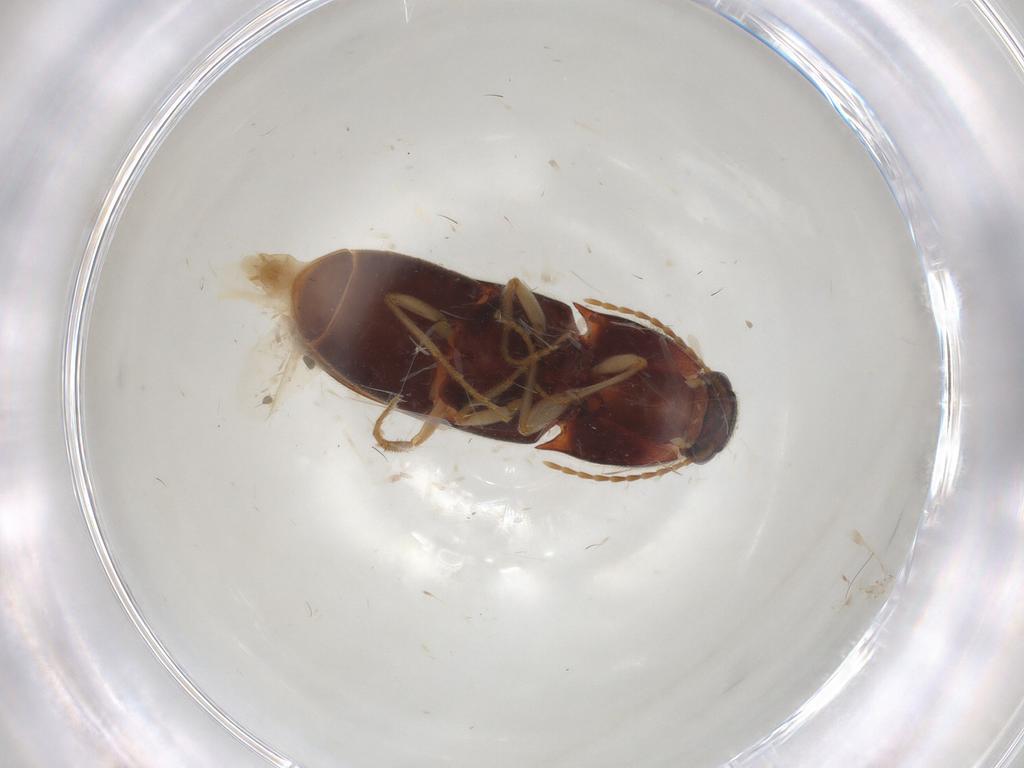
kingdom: Animalia
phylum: Arthropoda
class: Insecta
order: Coleoptera
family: Elateridae
